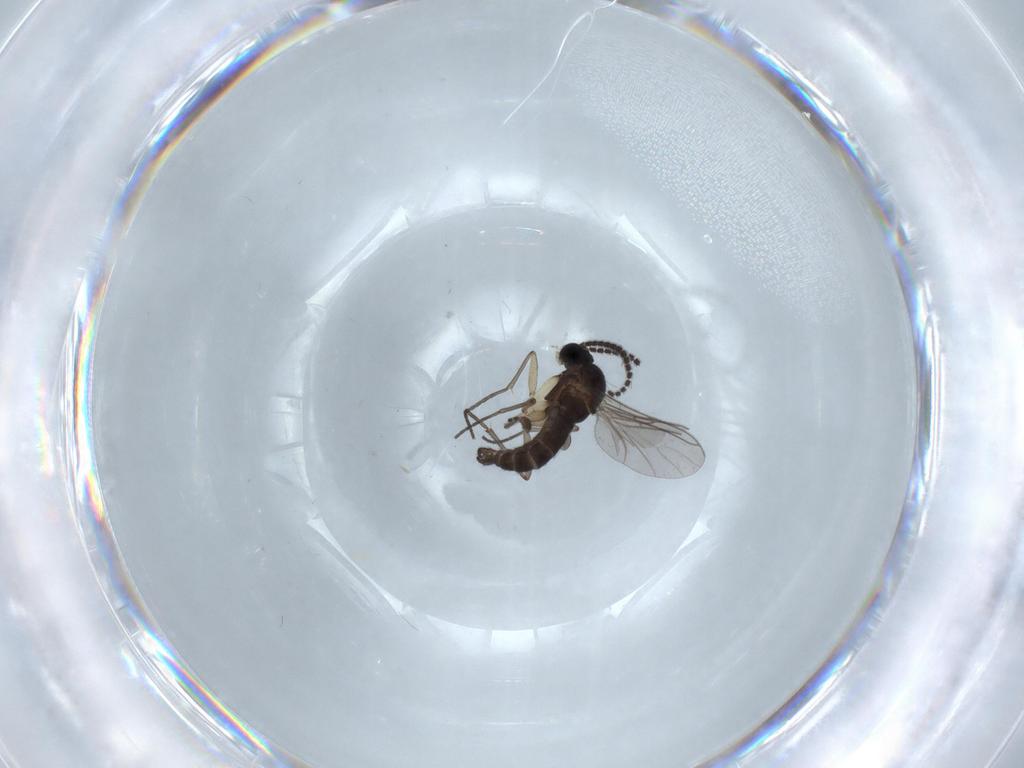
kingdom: Animalia
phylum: Arthropoda
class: Insecta
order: Diptera
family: Sciaridae
